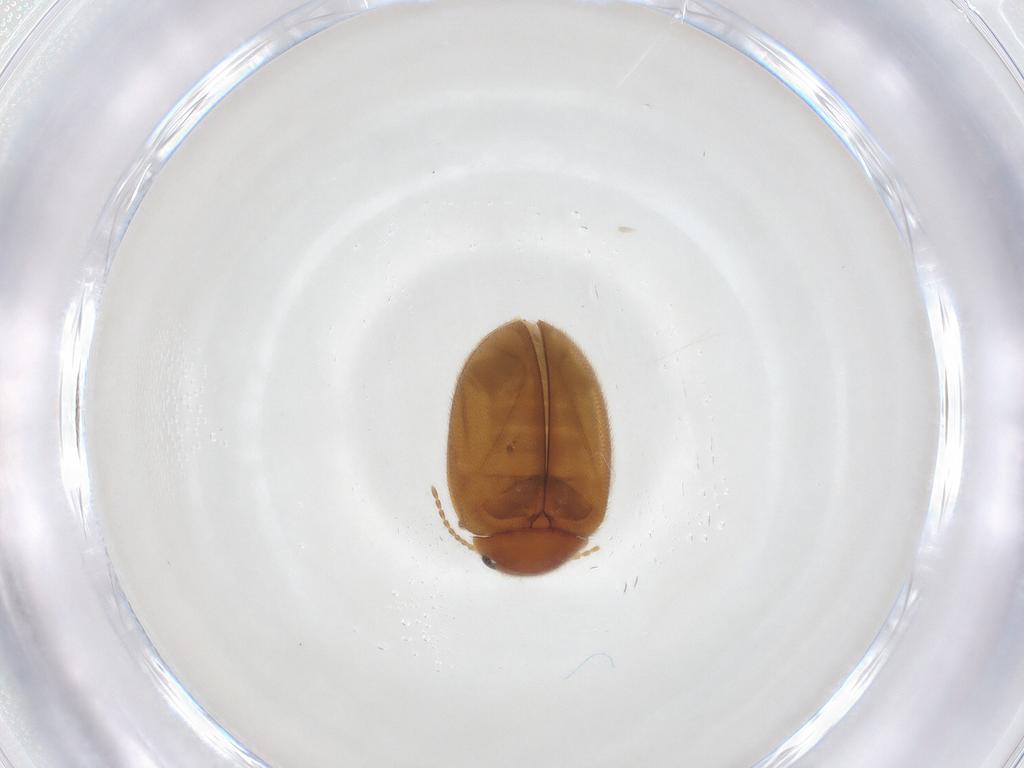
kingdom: Animalia
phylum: Arthropoda
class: Insecta
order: Coleoptera
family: Scirtidae
